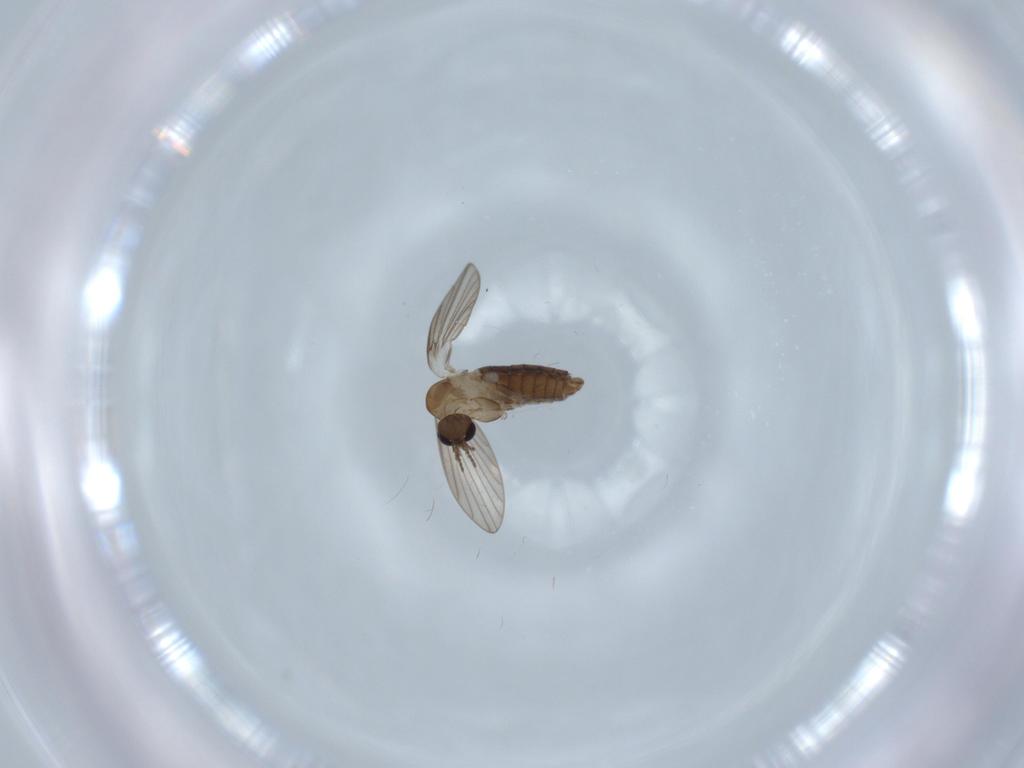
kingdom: Animalia
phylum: Arthropoda
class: Insecta
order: Diptera
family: Psychodidae
